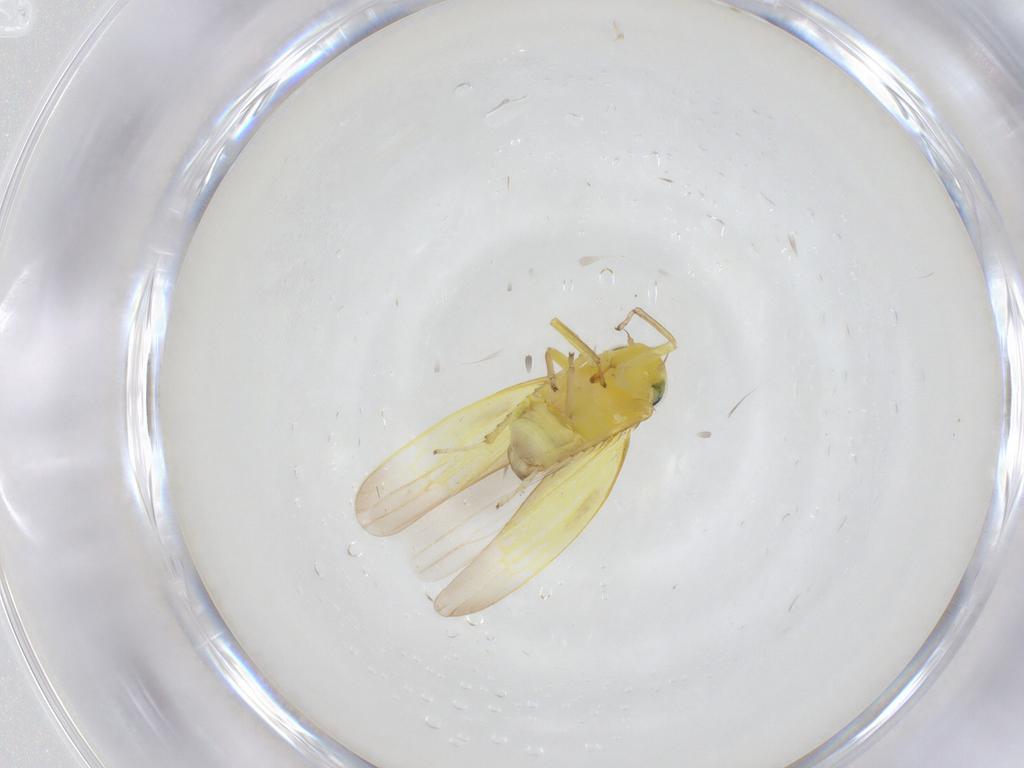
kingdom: Animalia
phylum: Arthropoda
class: Insecta
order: Hemiptera
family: Cicadellidae
